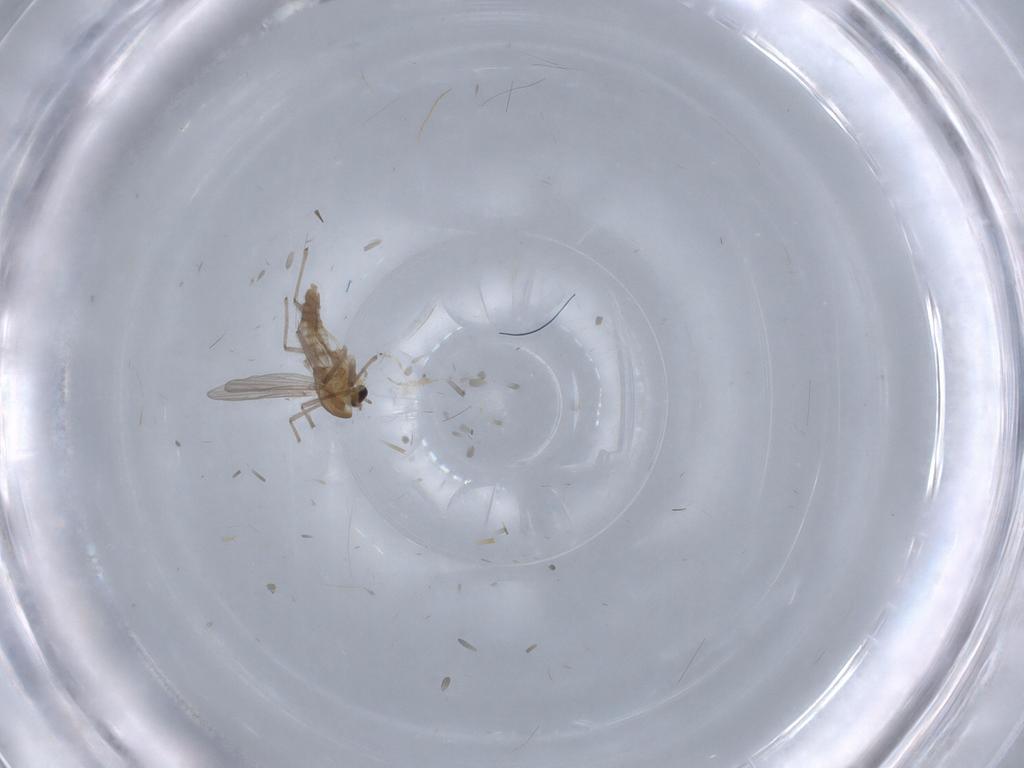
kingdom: Animalia
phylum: Arthropoda
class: Insecta
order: Diptera
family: Chironomidae
